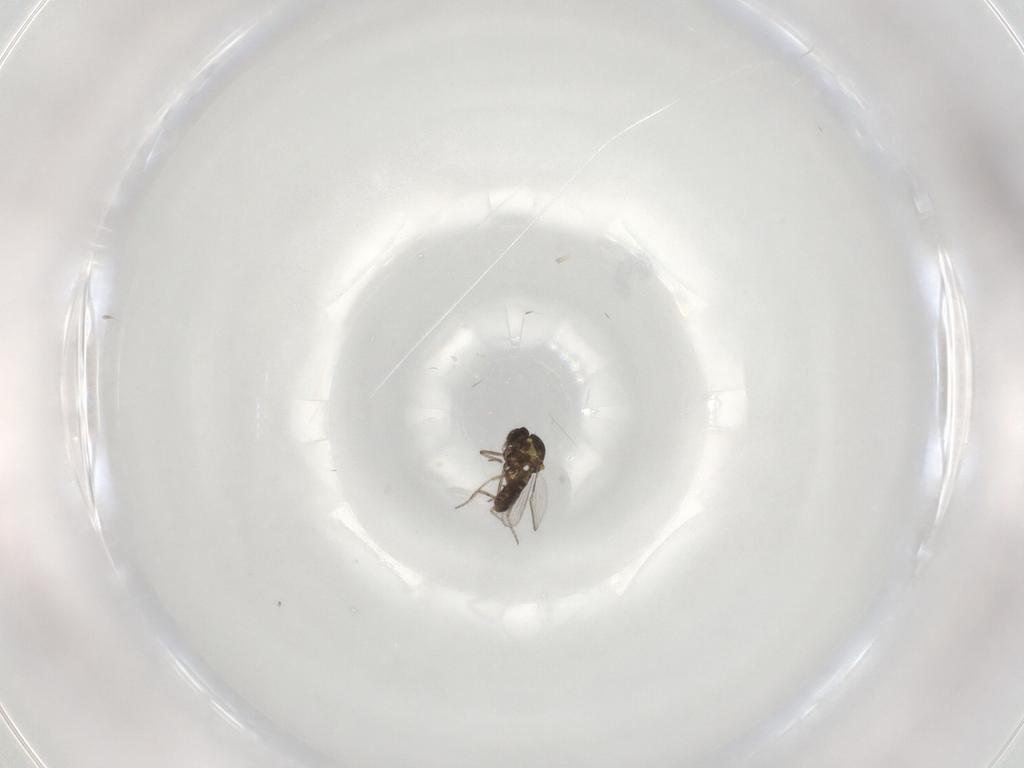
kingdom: Animalia
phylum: Arthropoda
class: Insecta
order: Diptera
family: Ceratopogonidae
